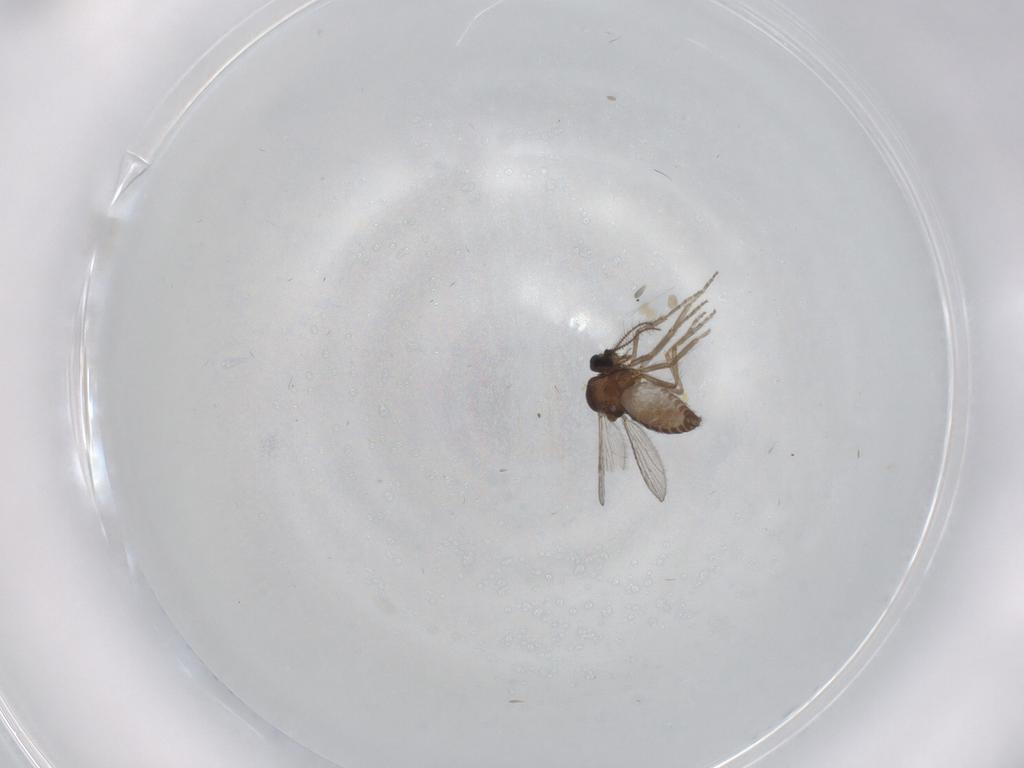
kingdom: Animalia
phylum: Arthropoda
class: Insecta
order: Diptera
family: Ceratopogonidae
